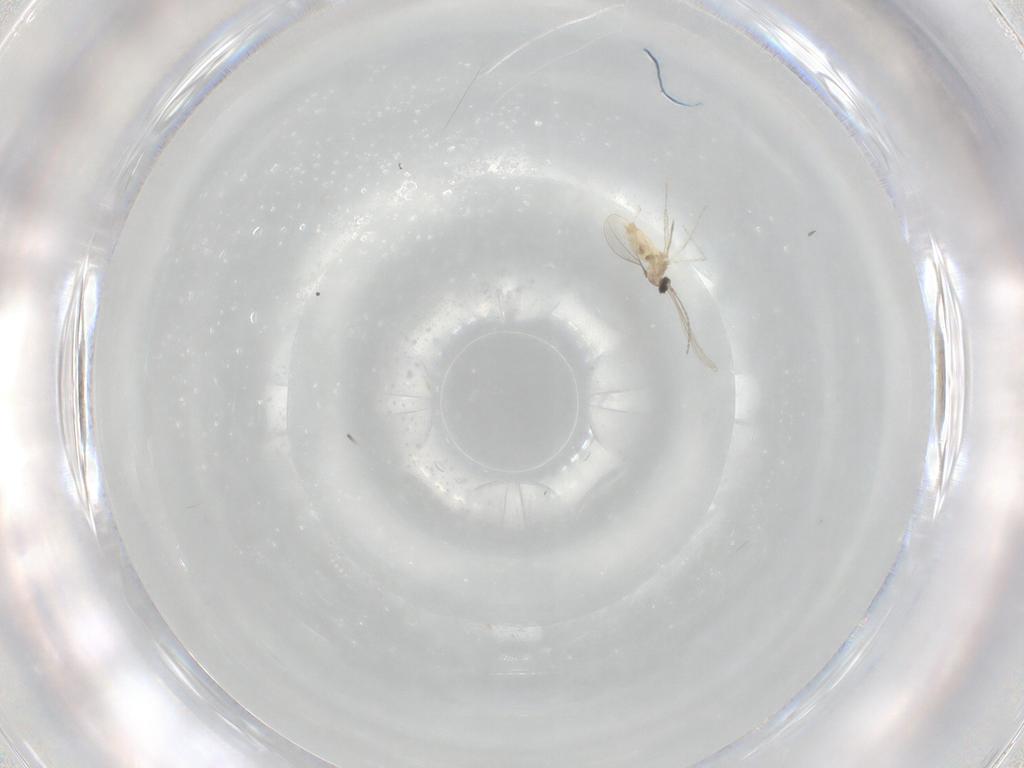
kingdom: Animalia
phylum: Arthropoda
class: Insecta
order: Diptera
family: Cecidomyiidae
